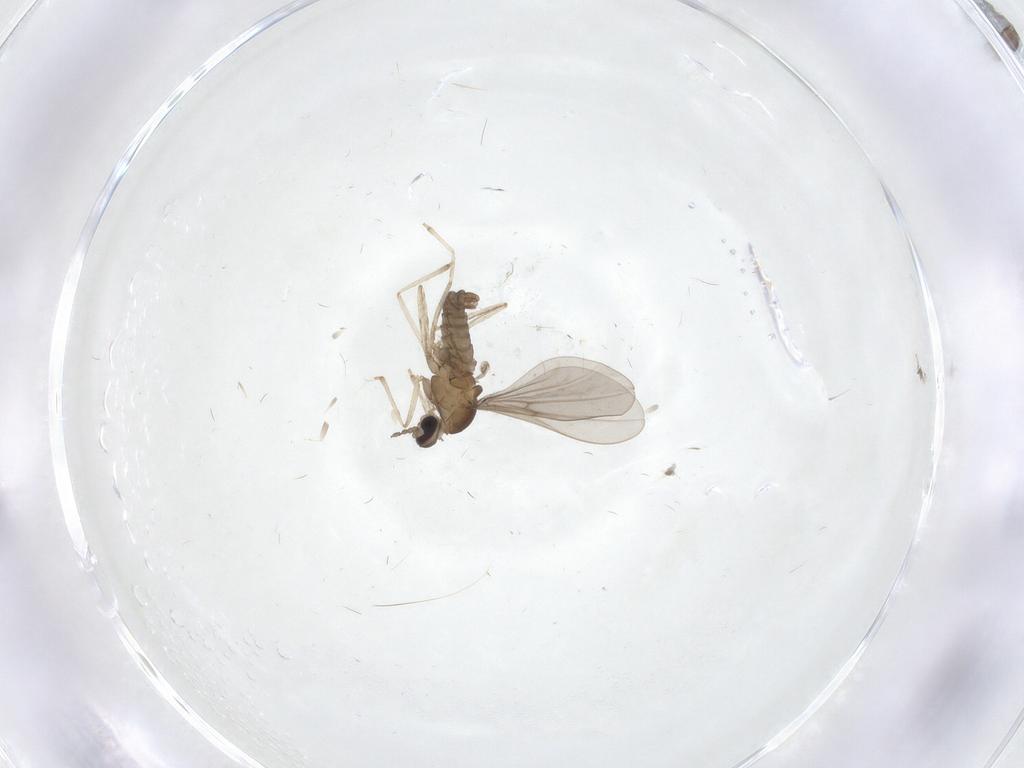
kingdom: Animalia
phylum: Arthropoda
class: Insecta
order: Diptera
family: Cecidomyiidae
